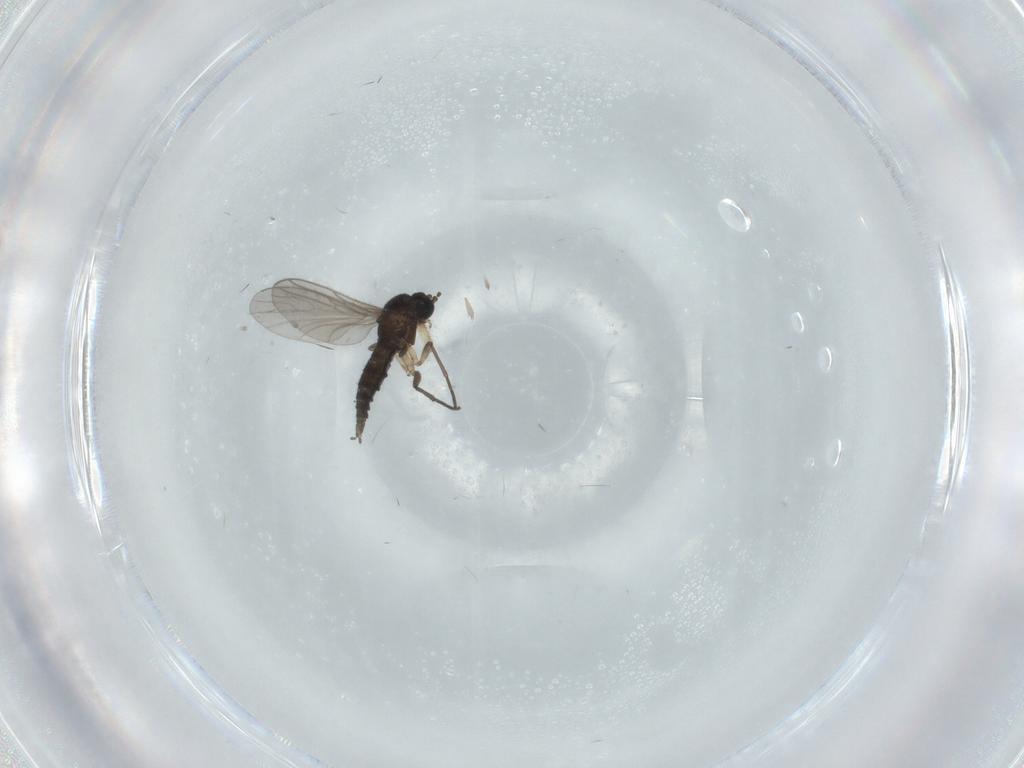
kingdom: Animalia
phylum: Arthropoda
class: Insecta
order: Diptera
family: Sciaridae
